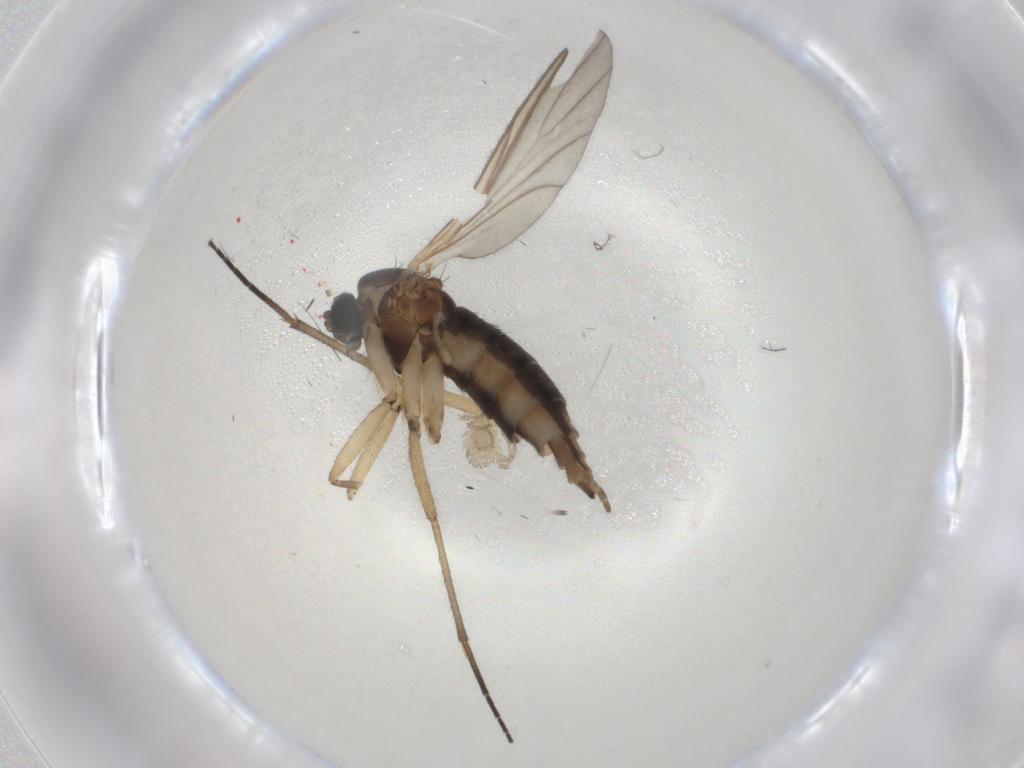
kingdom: Animalia
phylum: Arthropoda
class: Insecta
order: Diptera
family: Sciaridae
